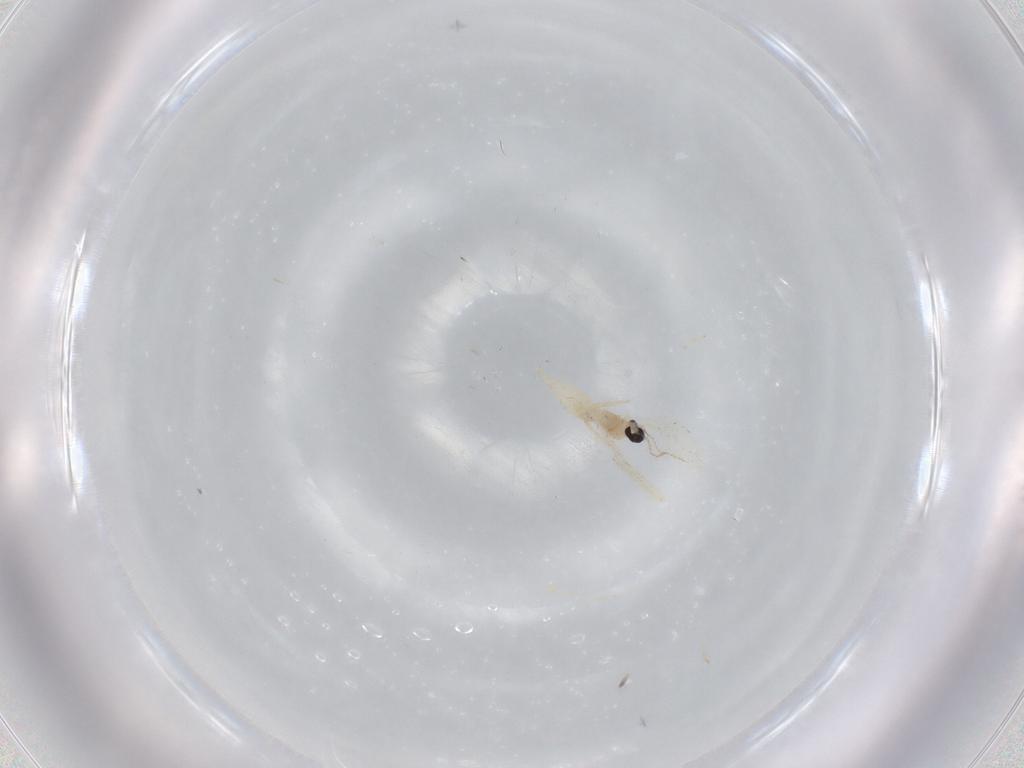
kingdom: Animalia
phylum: Arthropoda
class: Insecta
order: Diptera
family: Cecidomyiidae
